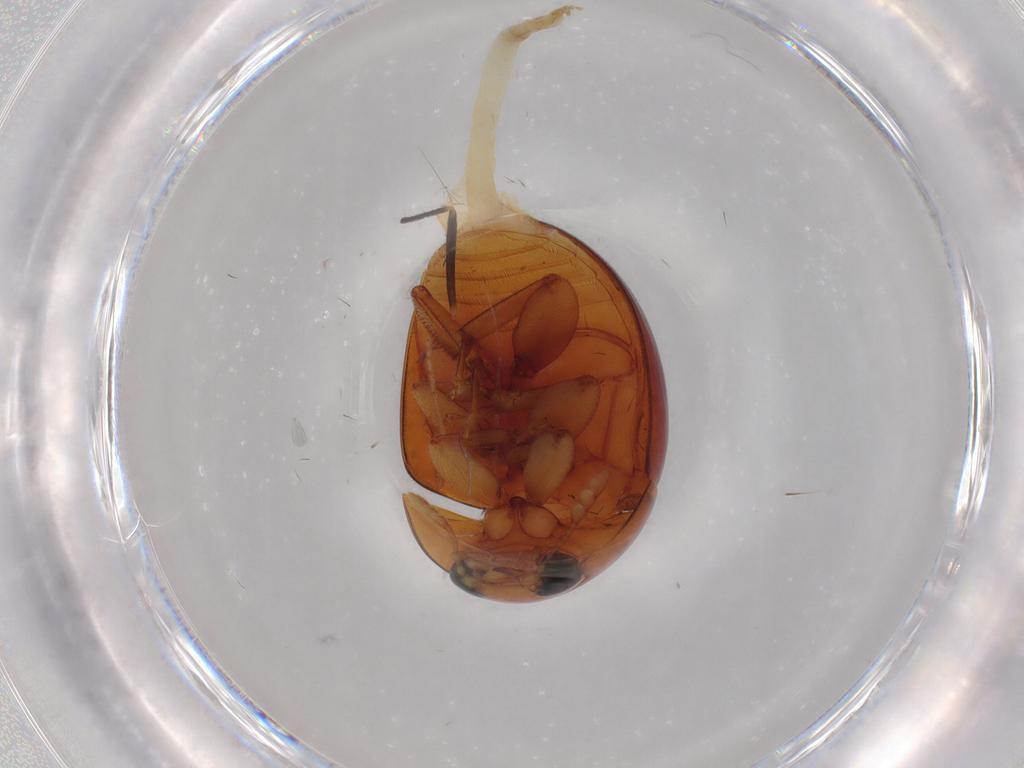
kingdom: Animalia
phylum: Arthropoda
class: Insecta
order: Coleoptera
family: Phalacridae
